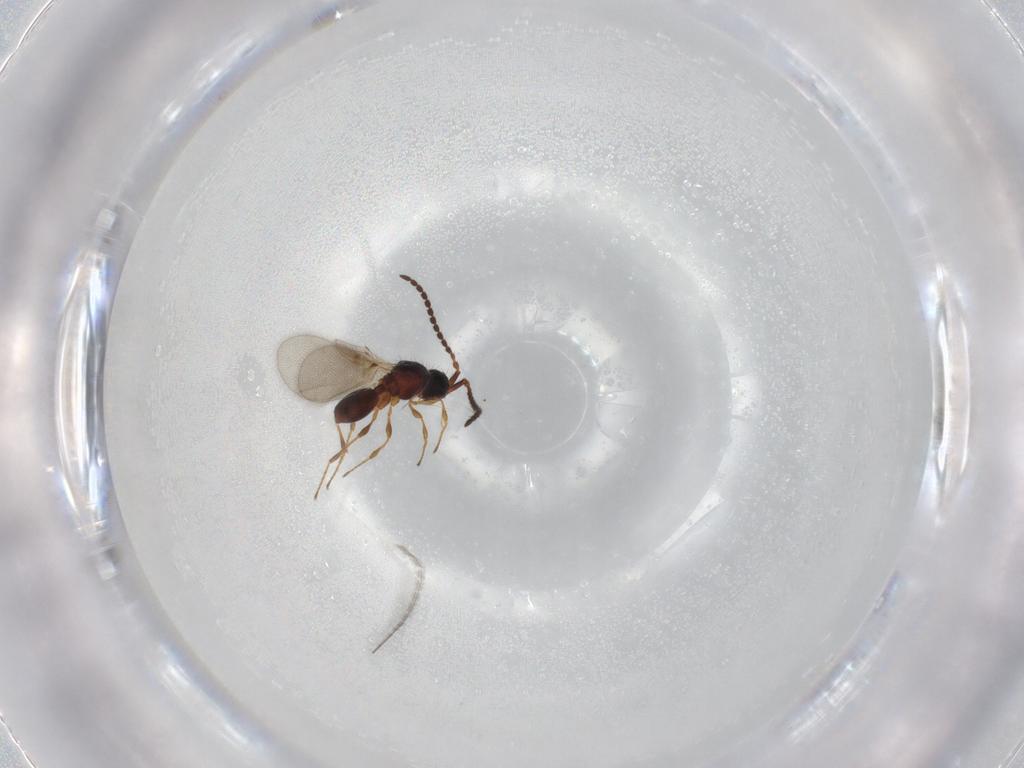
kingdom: Animalia
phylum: Arthropoda
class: Insecta
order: Hymenoptera
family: Diapriidae
